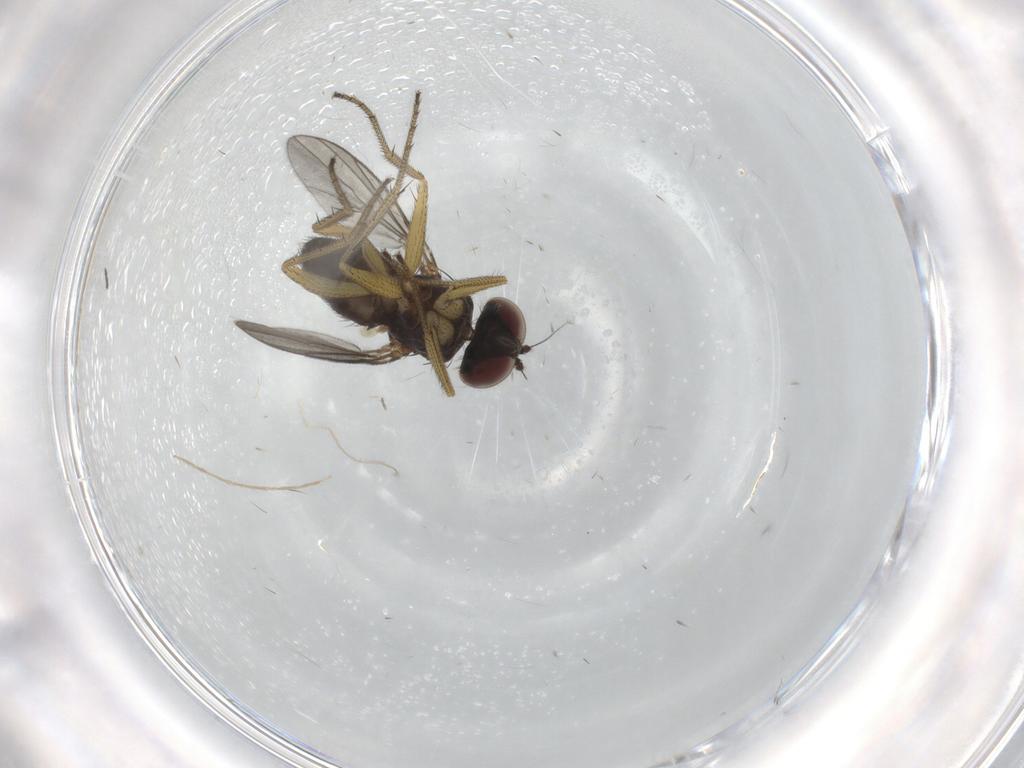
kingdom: Animalia
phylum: Arthropoda
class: Insecta
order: Diptera
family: Chironomidae
